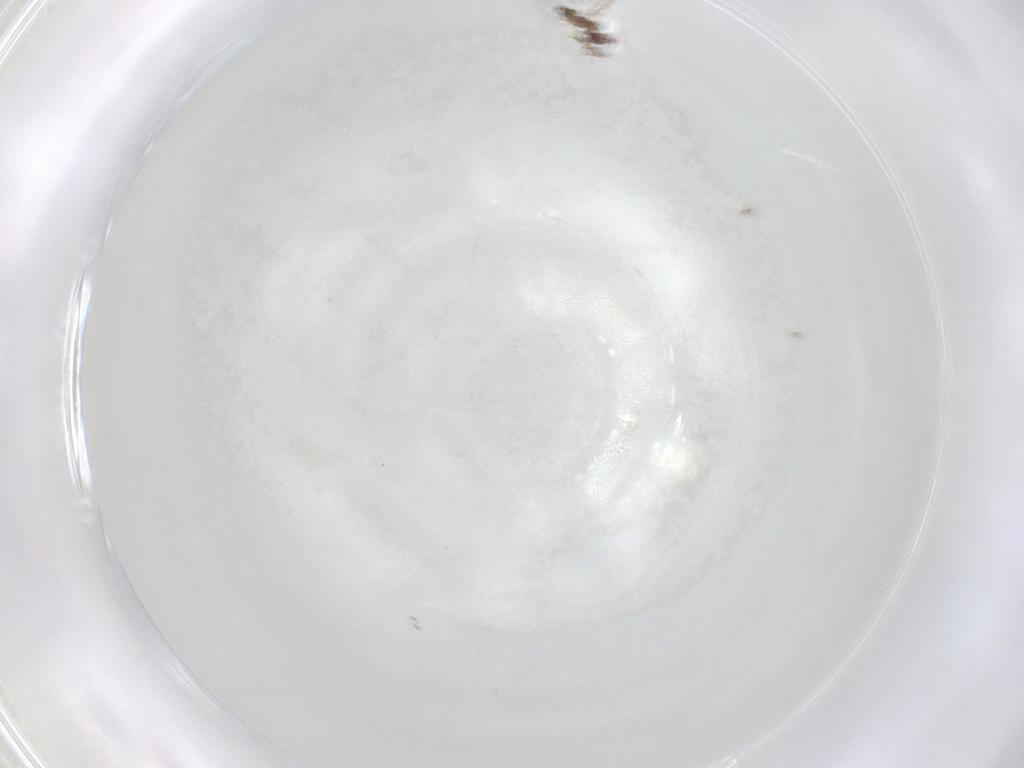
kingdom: Animalia
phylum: Arthropoda
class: Insecta
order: Hymenoptera
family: Mymaridae
